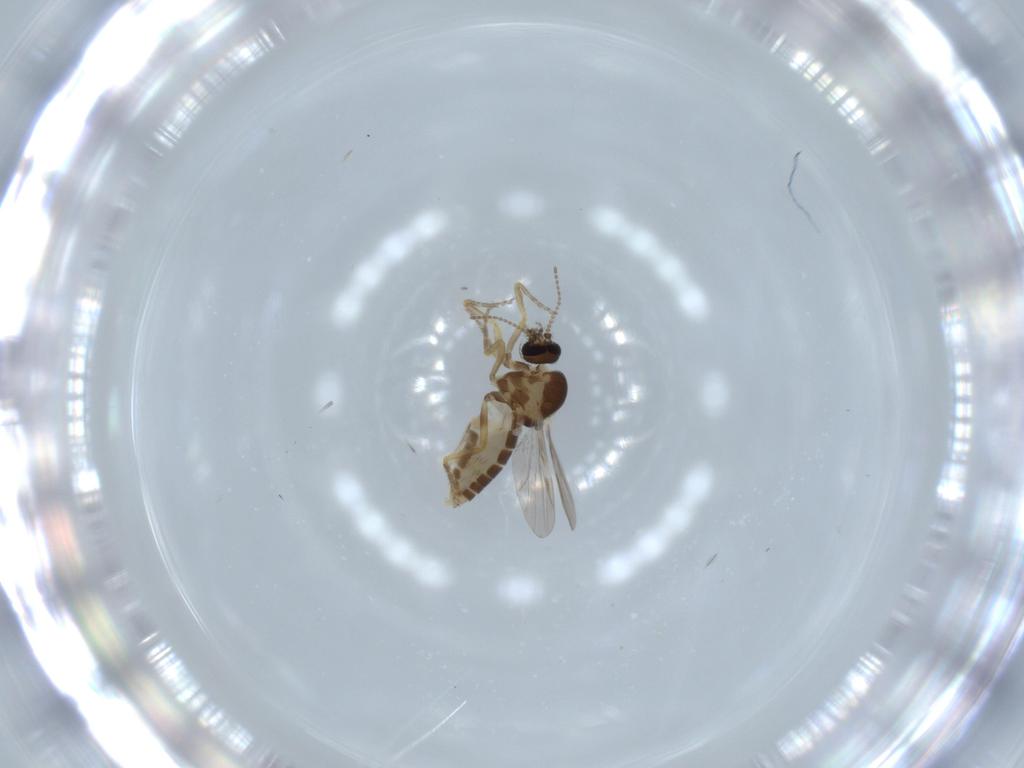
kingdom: Animalia
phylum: Arthropoda
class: Insecta
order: Diptera
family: Ceratopogonidae
